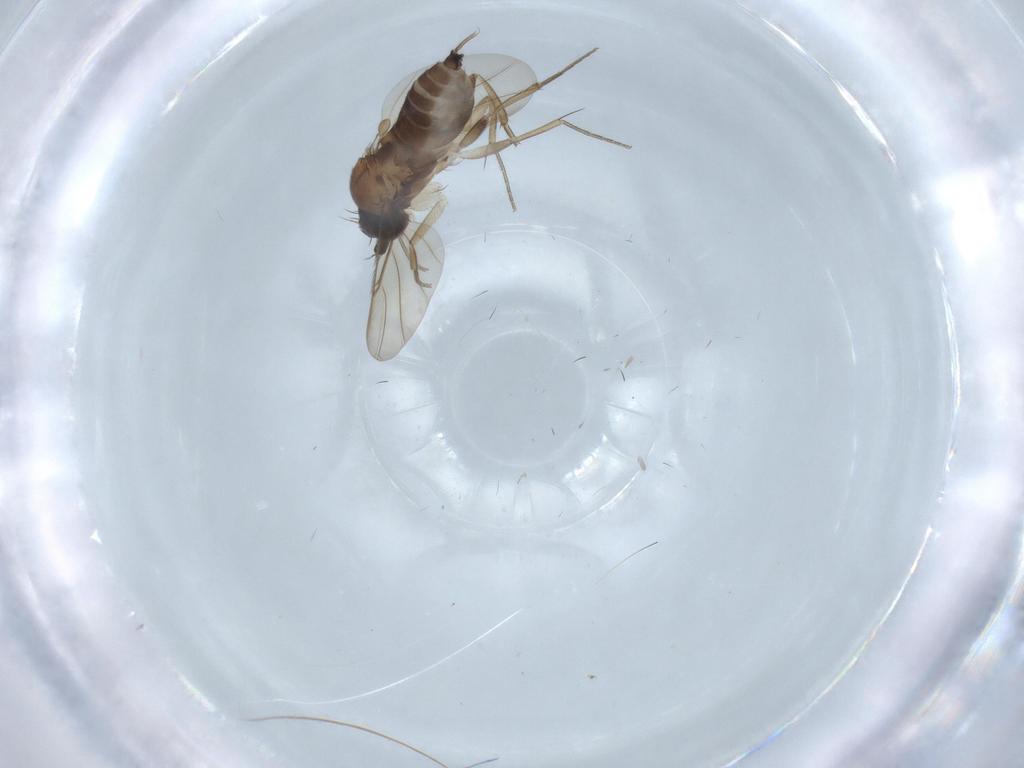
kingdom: Animalia
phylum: Arthropoda
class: Insecta
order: Diptera
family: Phoridae
